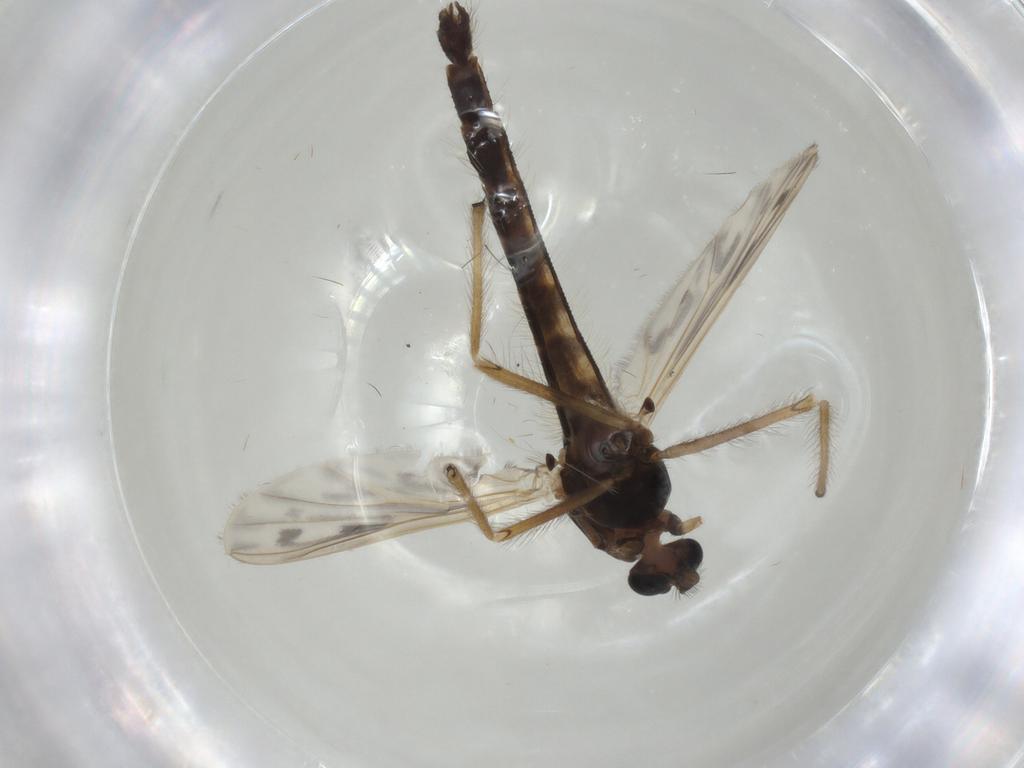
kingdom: Animalia
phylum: Arthropoda
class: Insecta
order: Diptera
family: Chironomidae
